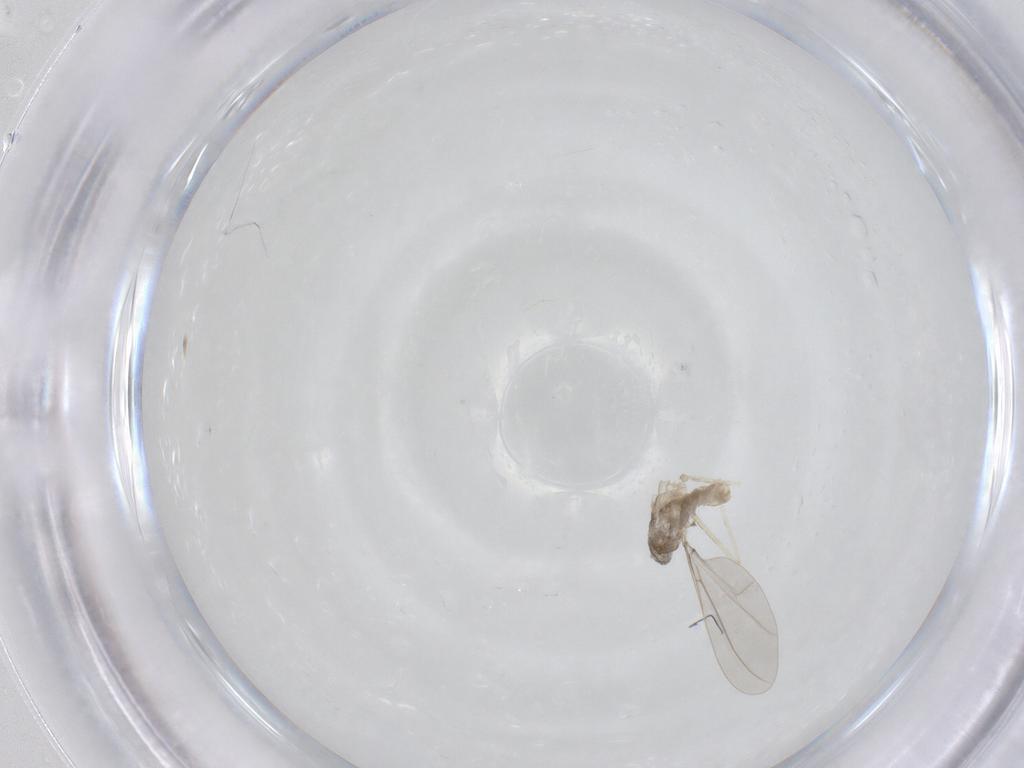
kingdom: Animalia
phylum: Arthropoda
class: Insecta
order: Diptera
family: Cecidomyiidae
